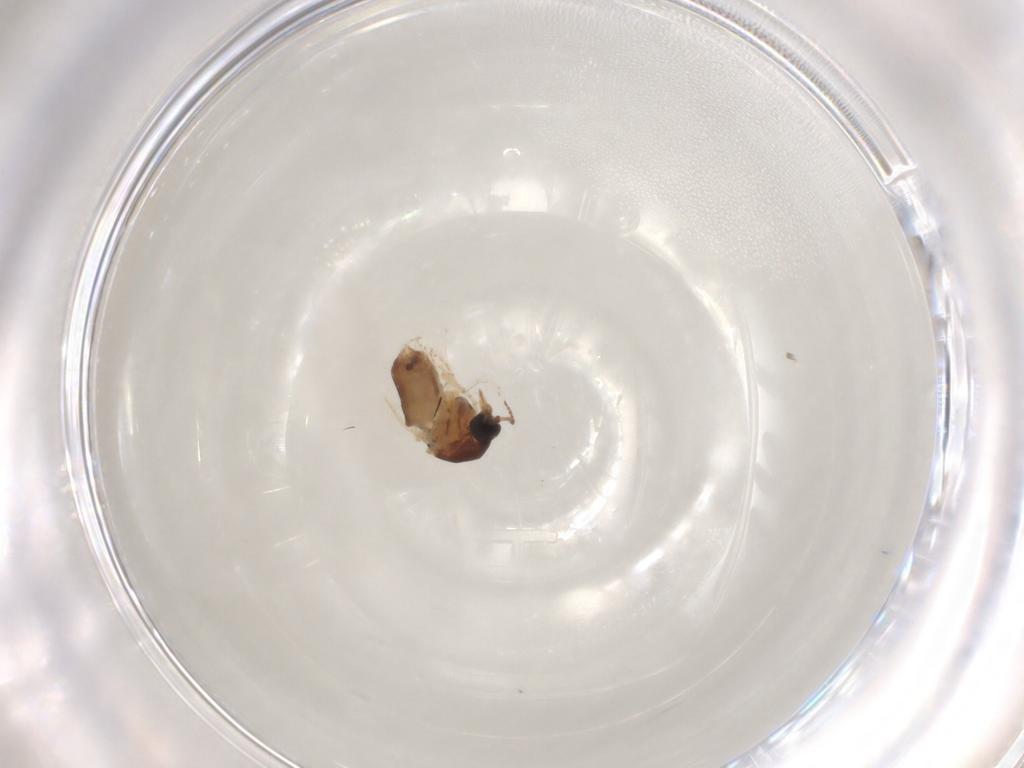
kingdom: Animalia
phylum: Arthropoda
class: Insecta
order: Diptera
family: Ceratopogonidae
